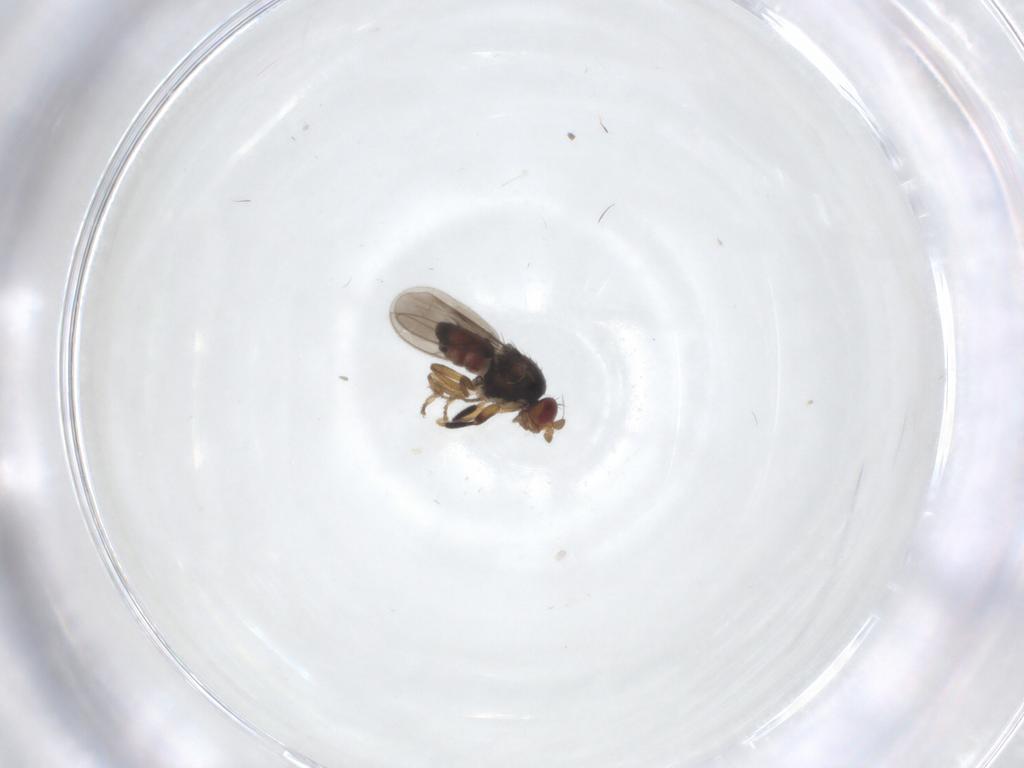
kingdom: Animalia
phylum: Arthropoda
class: Insecta
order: Diptera
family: Sphaeroceridae
